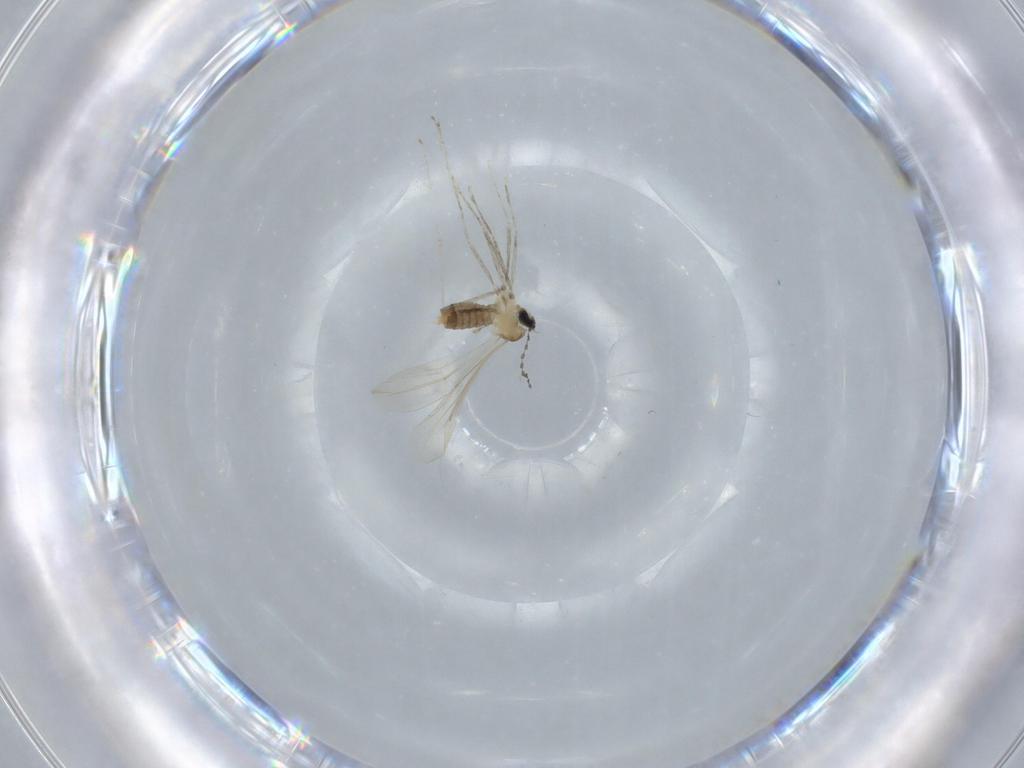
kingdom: Animalia
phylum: Arthropoda
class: Insecta
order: Diptera
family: Cecidomyiidae
